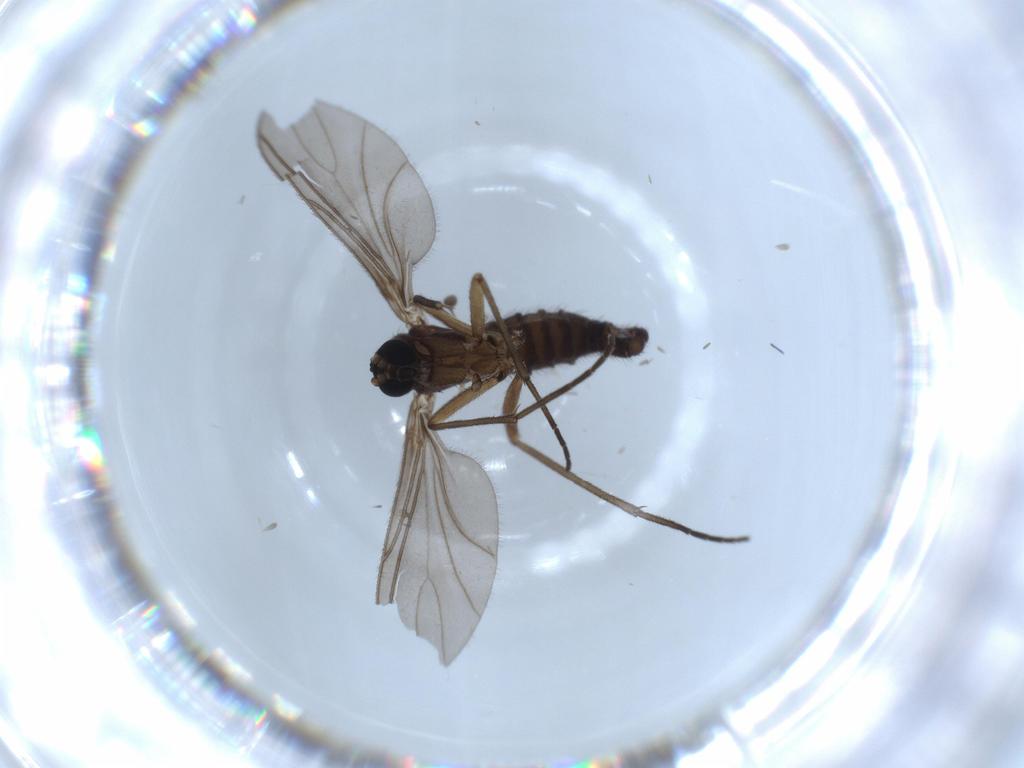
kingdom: Animalia
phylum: Arthropoda
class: Insecta
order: Diptera
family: Sciaridae
